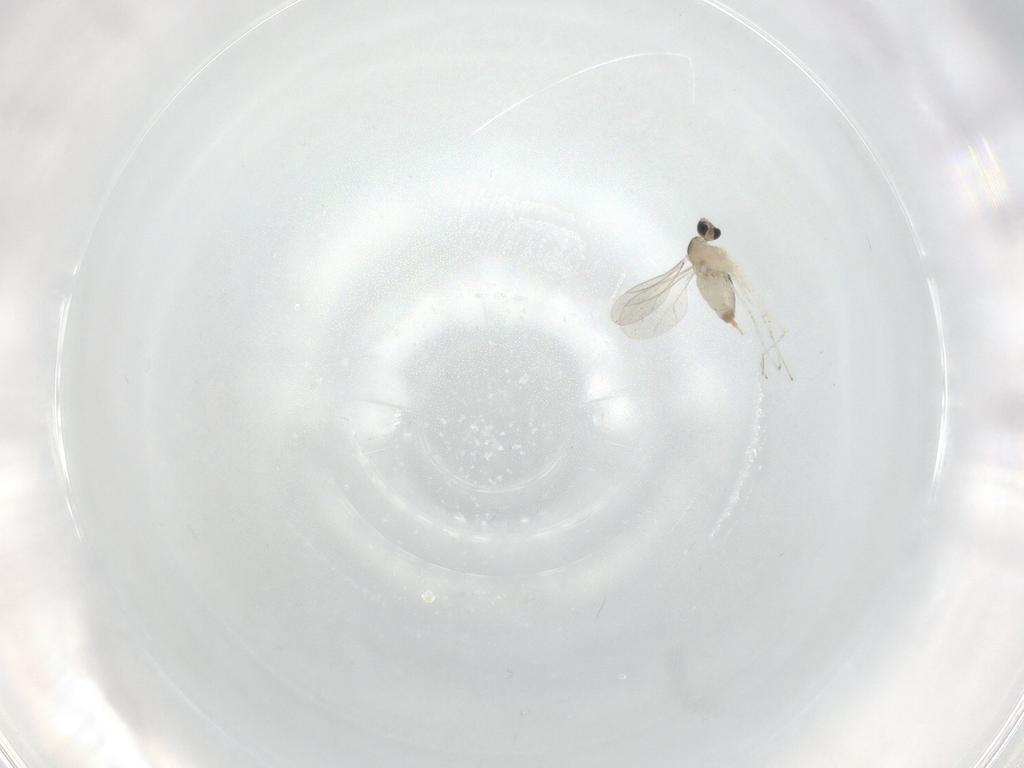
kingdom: Animalia
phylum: Arthropoda
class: Insecta
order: Diptera
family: Cecidomyiidae
